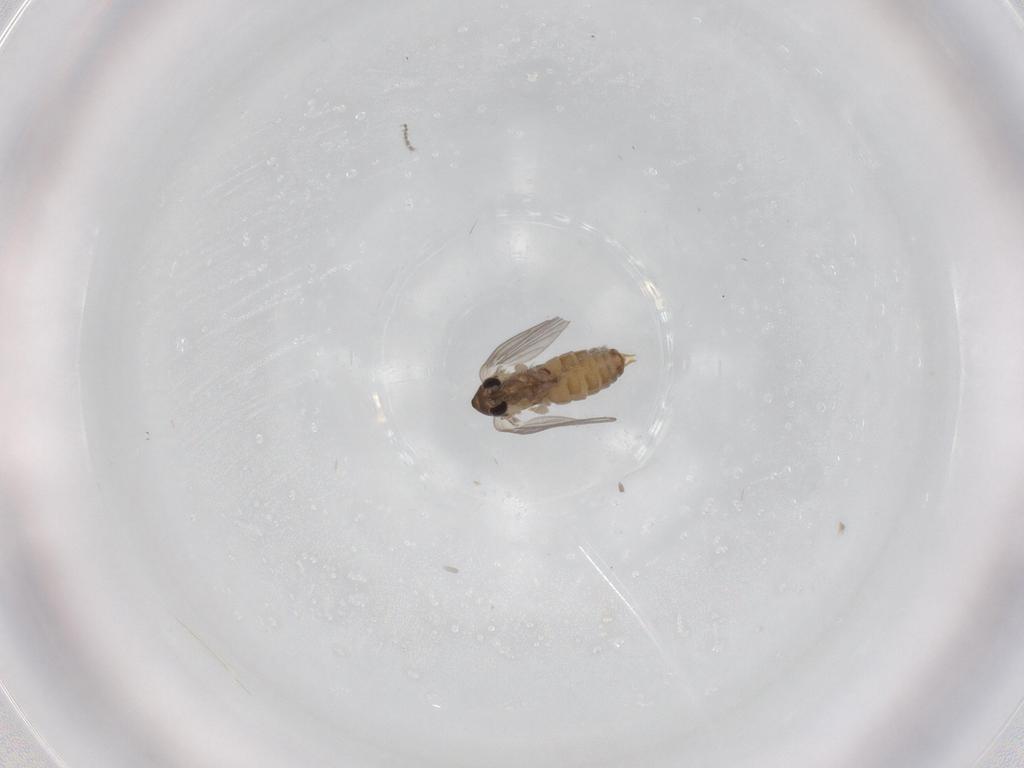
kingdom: Animalia
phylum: Arthropoda
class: Insecta
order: Diptera
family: Psychodidae
